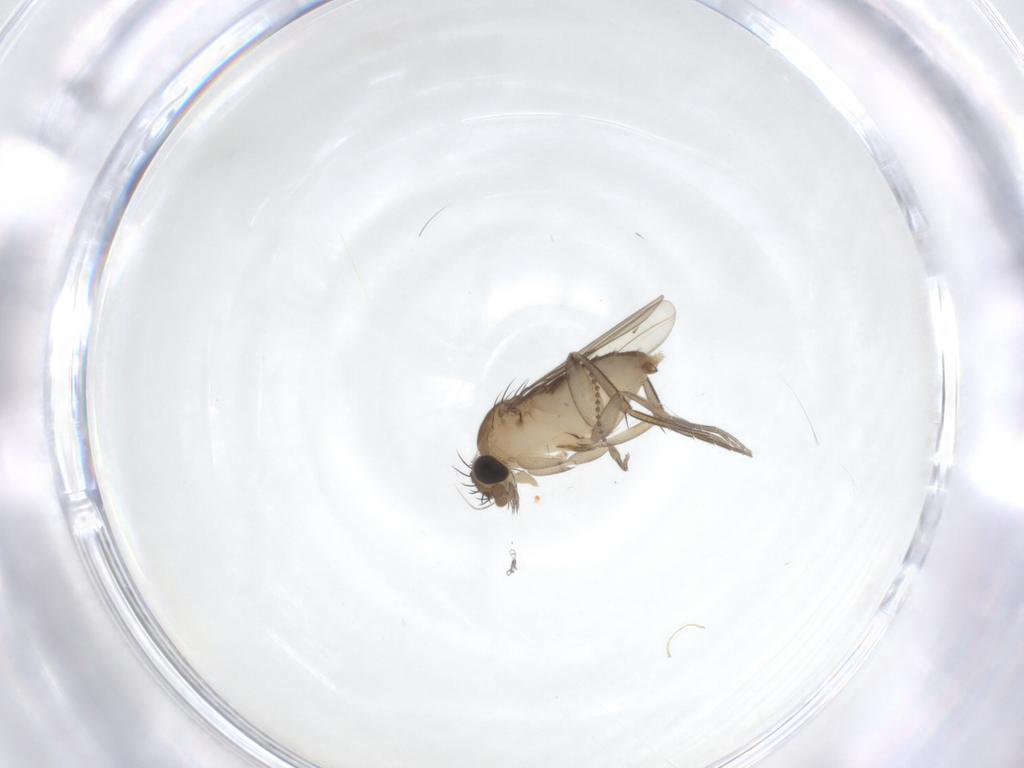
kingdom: Animalia
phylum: Arthropoda
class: Insecta
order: Diptera
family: Phoridae
